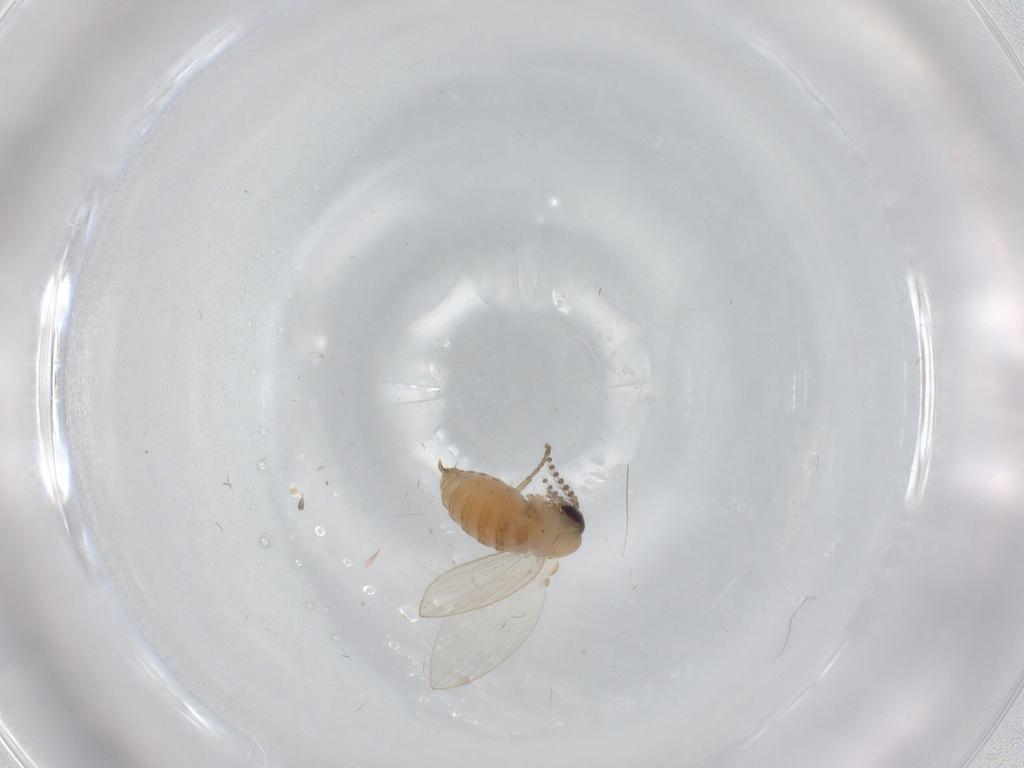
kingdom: Animalia
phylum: Arthropoda
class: Insecta
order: Diptera
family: Psychodidae
